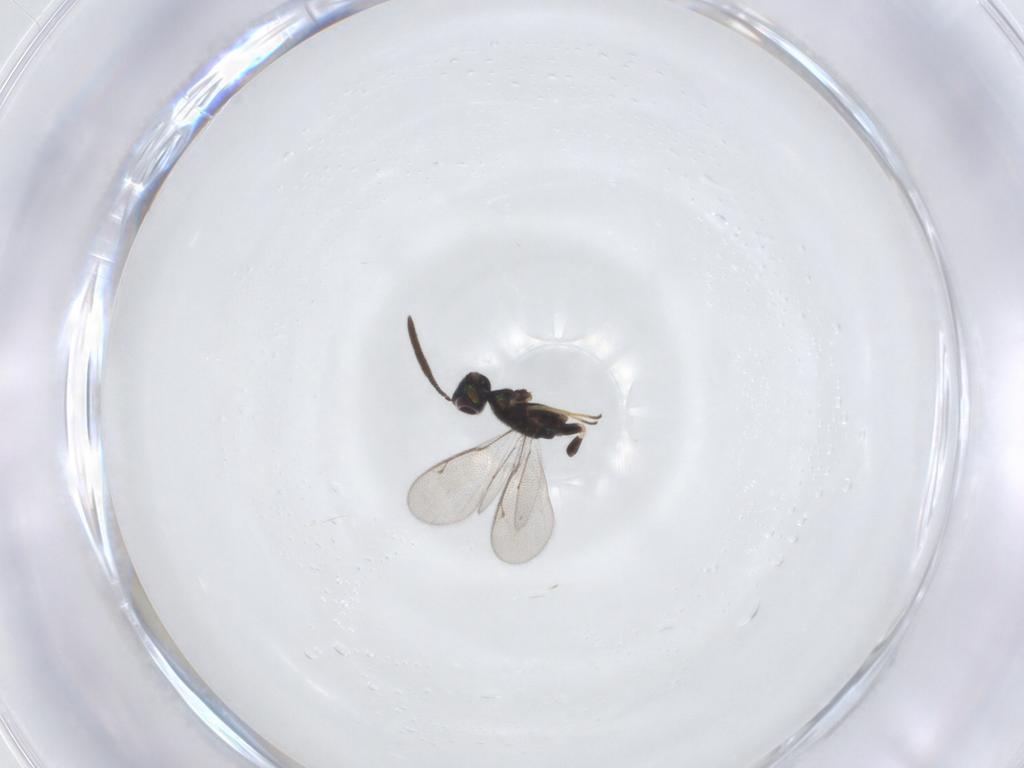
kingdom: Animalia
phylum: Arthropoda
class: Insecta
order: Hymenoptera
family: Eupelmidae
